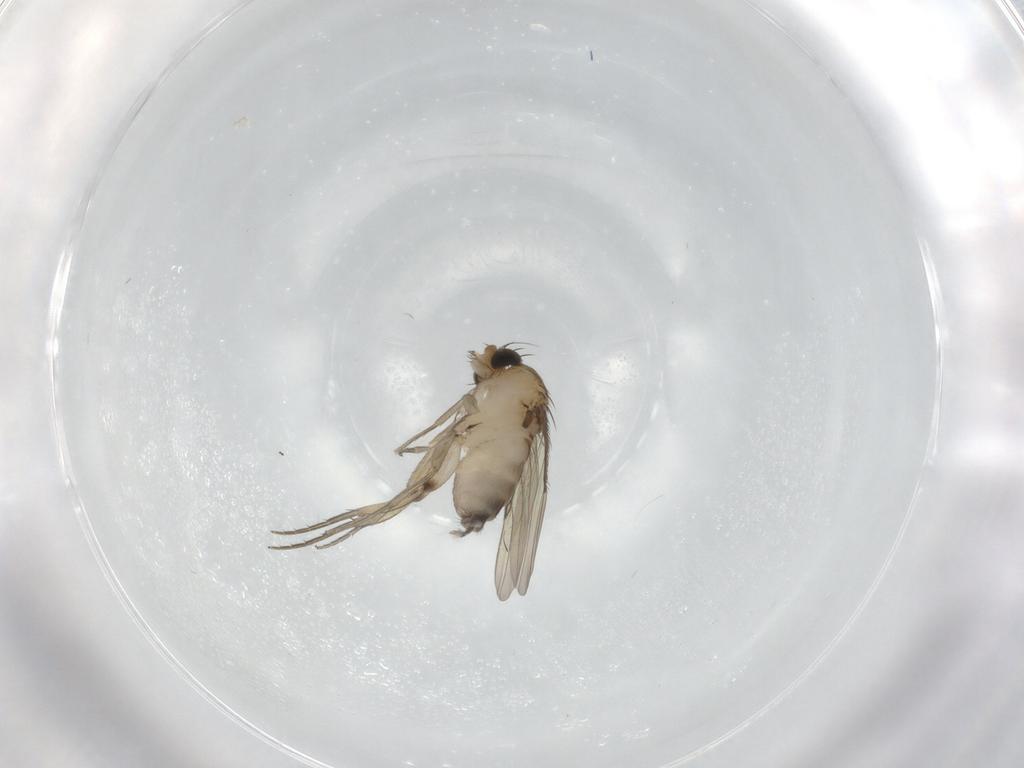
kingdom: Animalia
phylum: Arthropoda
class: Insecta
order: Diptera
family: Phoridae
